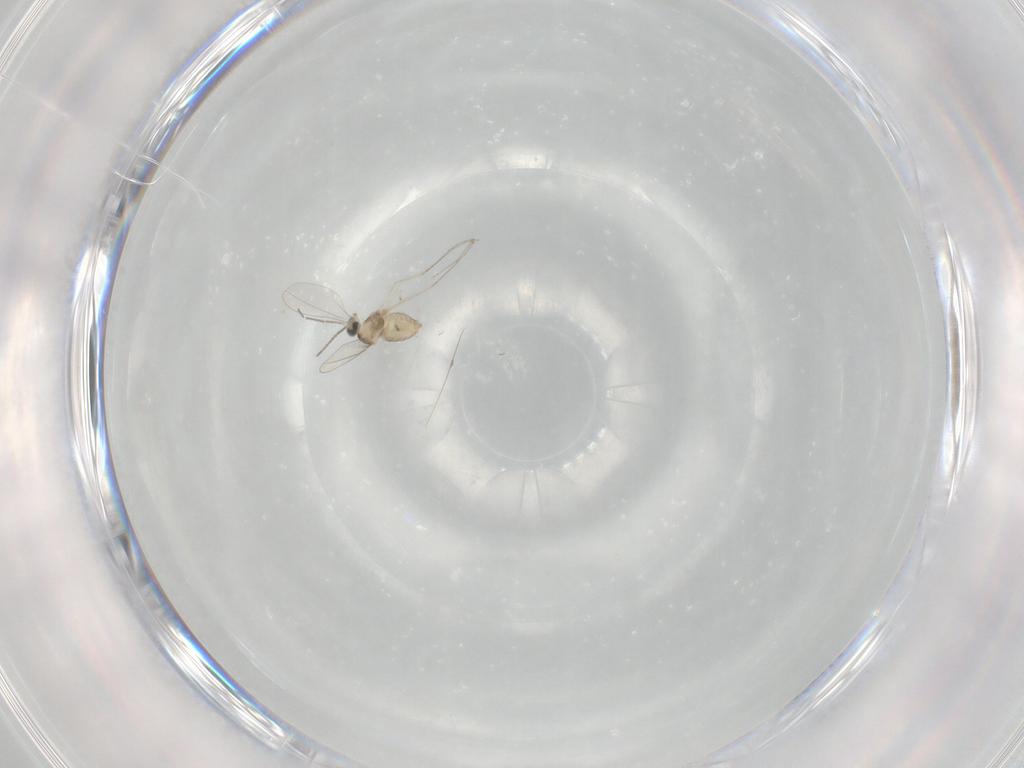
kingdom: Animalia
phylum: Arthropoda
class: Insecta
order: Diptera
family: Cecidomyiidae
